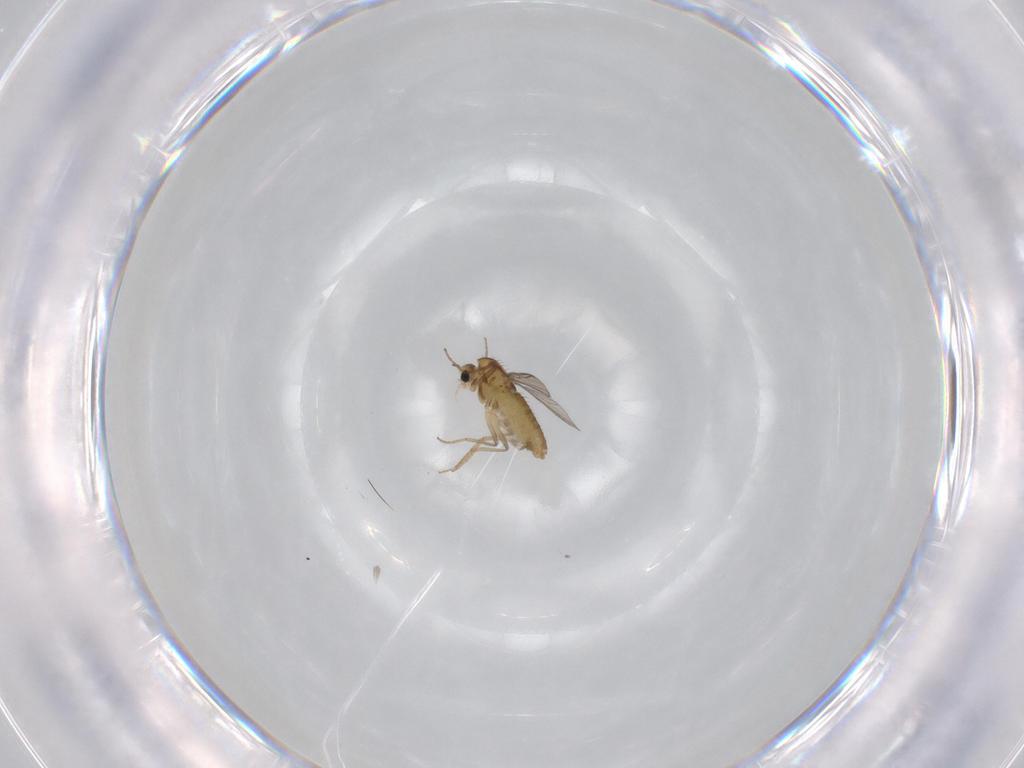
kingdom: Animalia
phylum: Arthropoda
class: Insecta
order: Diptera
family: Chironomidae
